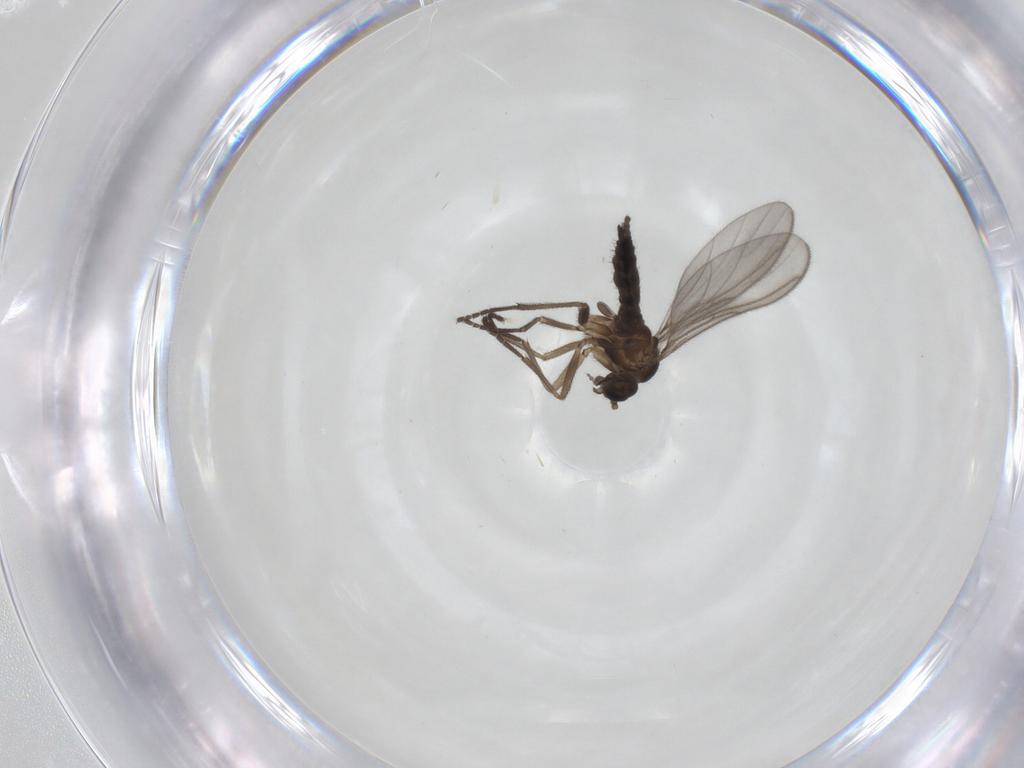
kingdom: Animalia
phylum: Arthropoda
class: Insecta
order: Diptera
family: Sciaridae
